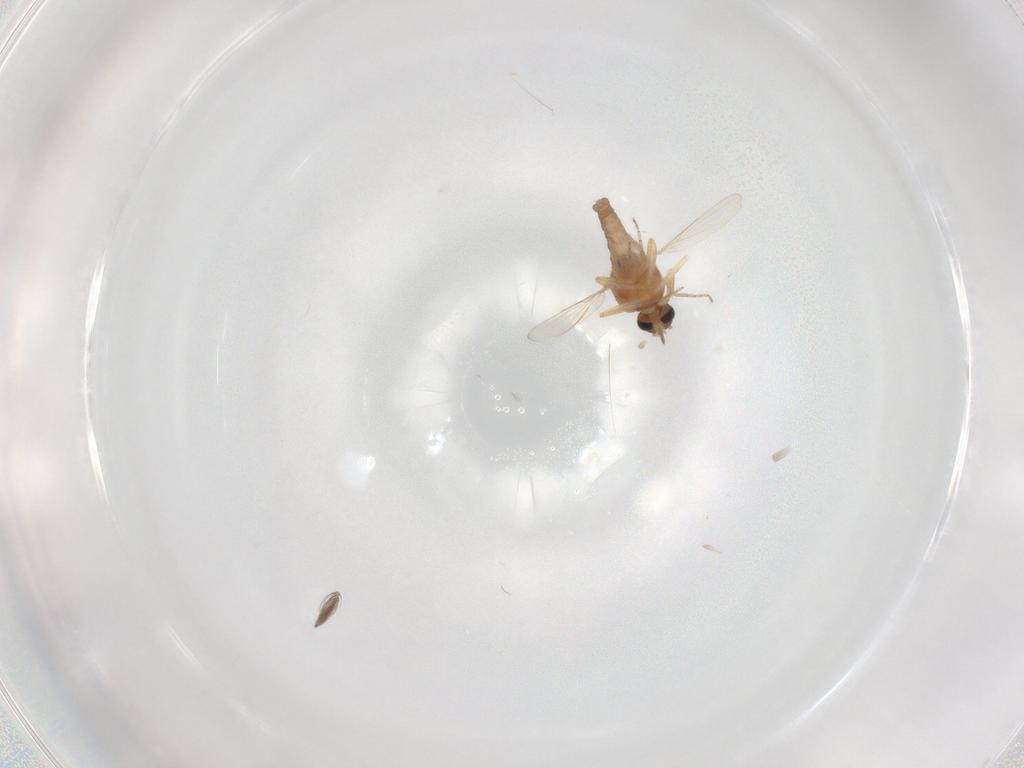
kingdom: Animalia
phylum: Arthropoda
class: Insecta
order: Diptera
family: Ceratopogonidae
